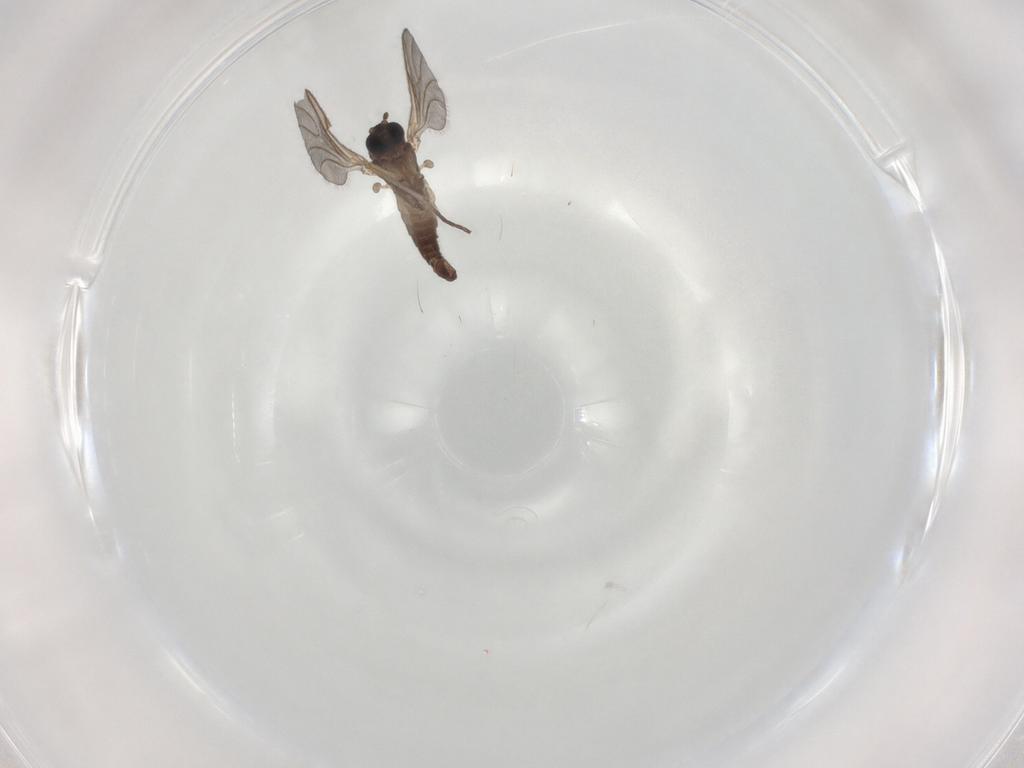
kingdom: Animalia
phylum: Arthropoda
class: Insecta
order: Diptera
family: Sciaridae
